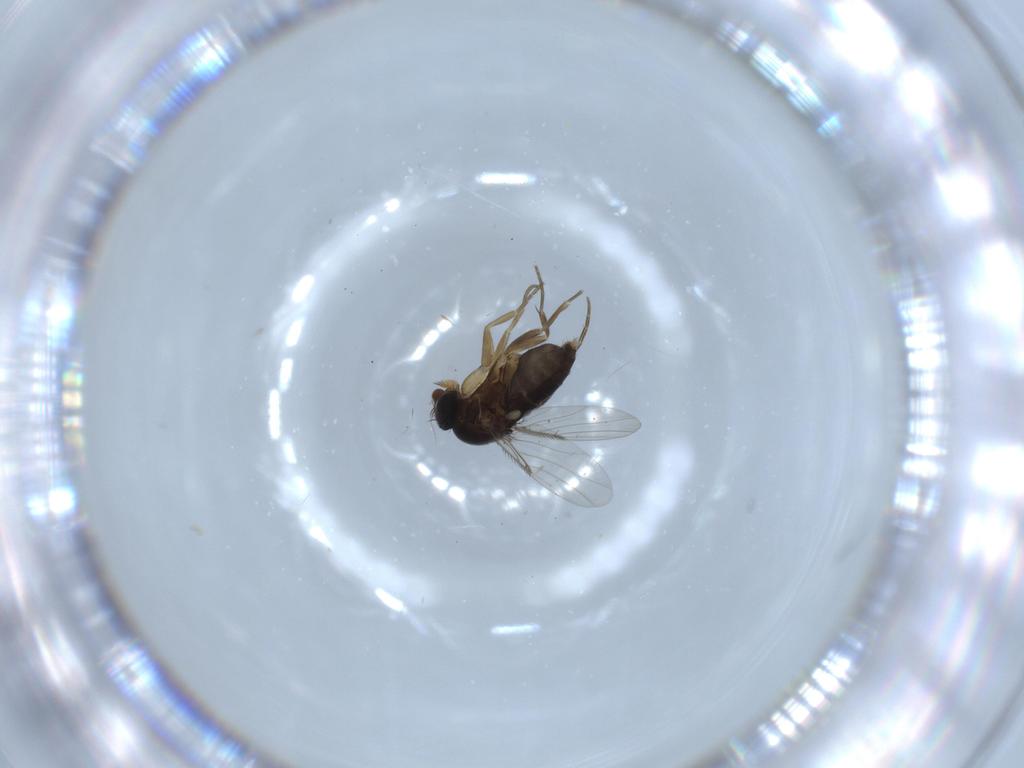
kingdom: Animalia
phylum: Arthropoda
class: Insecta
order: Diptera
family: Phoridae
